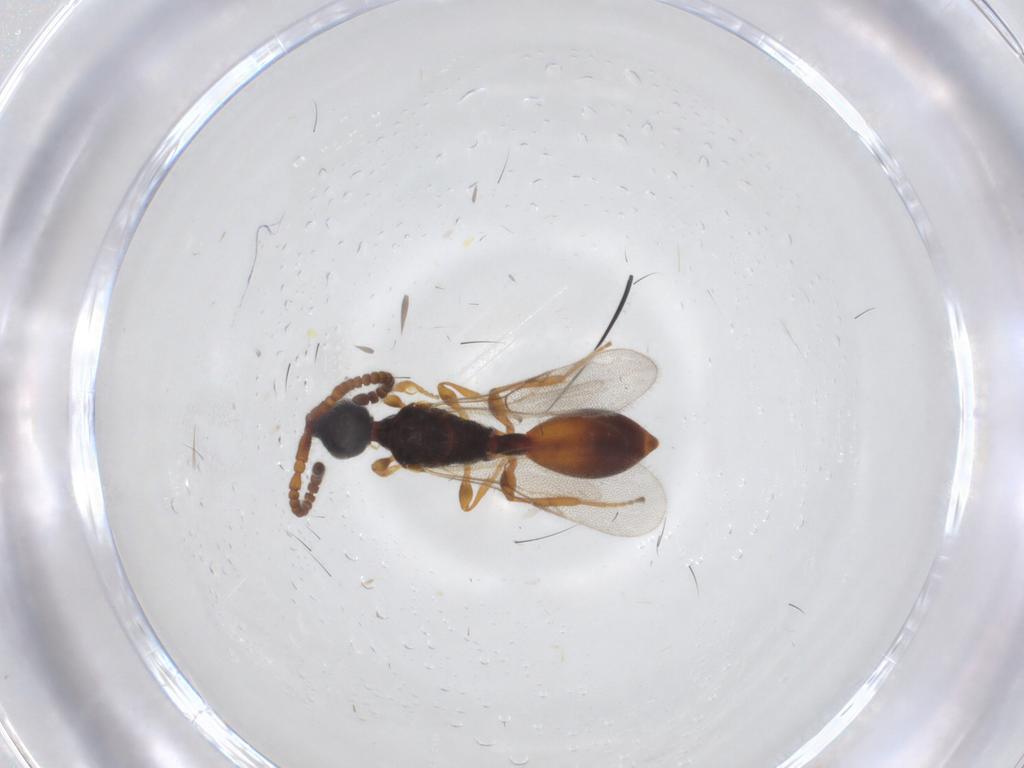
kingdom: Animalia
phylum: Arthropoda
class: Insecta
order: Hymenoptera
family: Diapriidae
